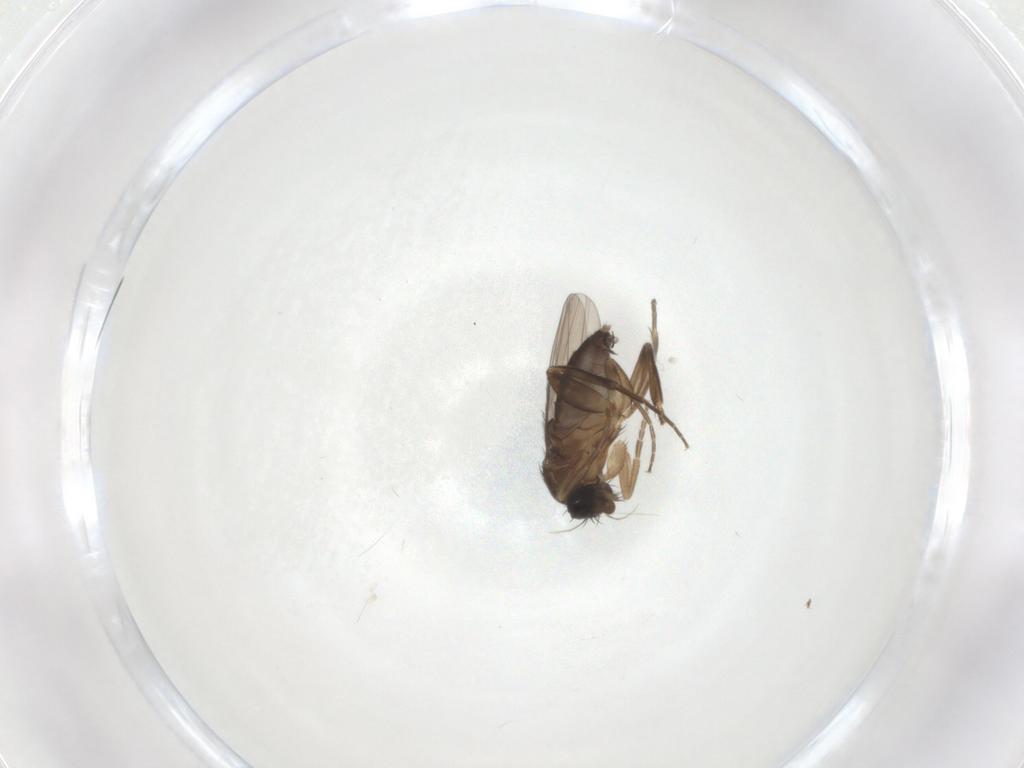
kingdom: Animalia
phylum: Arthropoda
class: Insecta
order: Diptera
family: Phoridae
